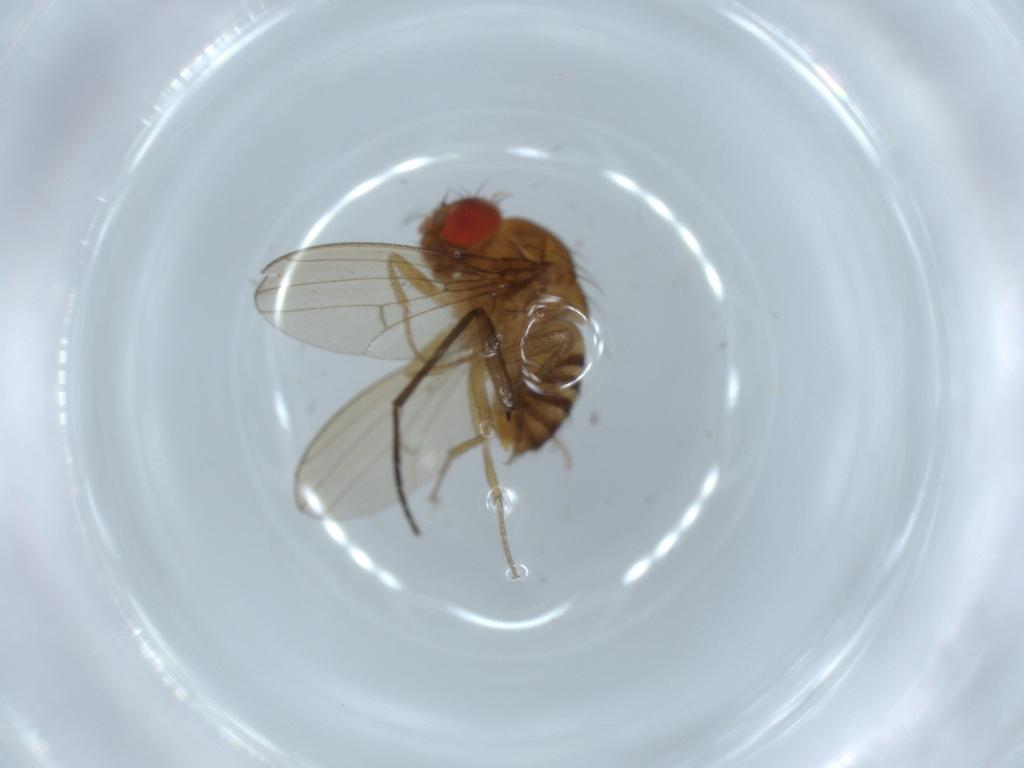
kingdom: Animalia
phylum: Arthropoda
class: Insecta
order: Diptera
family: Drosophilidae
